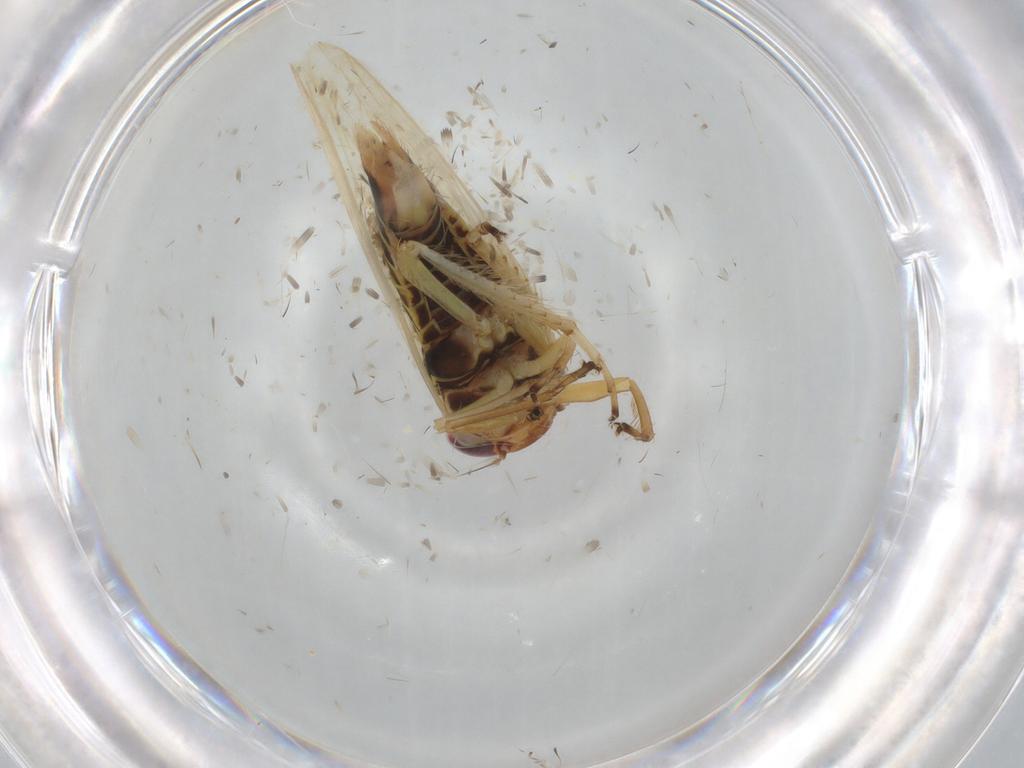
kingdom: Animalia
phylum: Arthropoda
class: Insecta
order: Hemiptera
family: Cicadellidae
